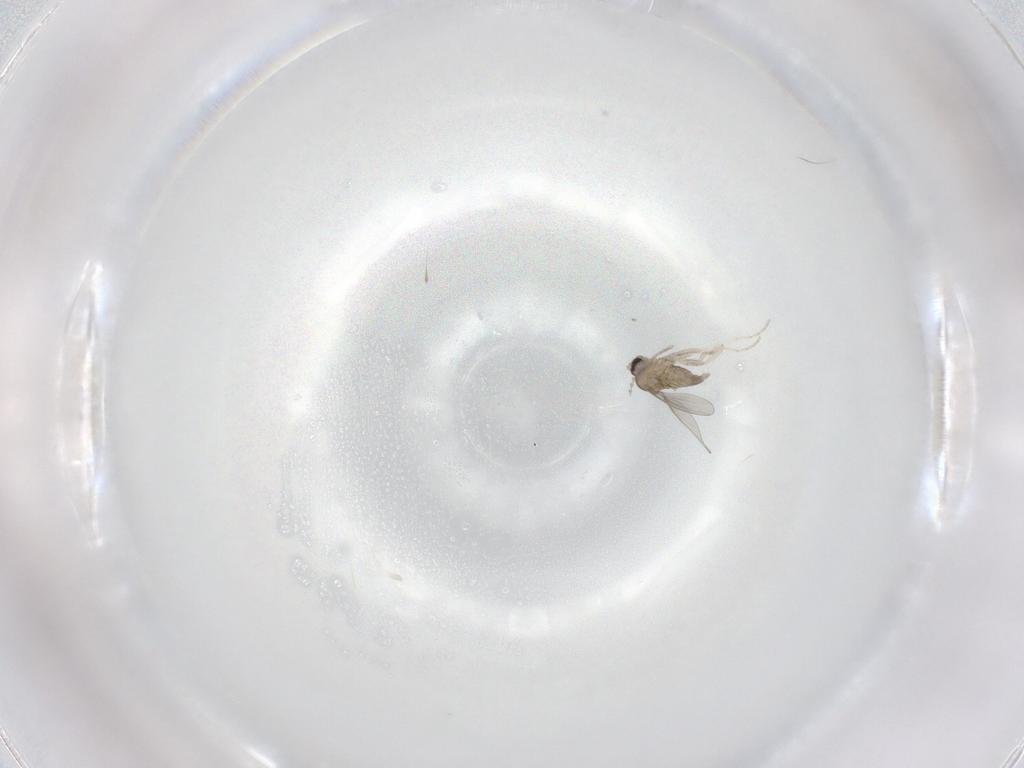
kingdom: Animalia
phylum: Arthropoda
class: Insecta
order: Diptera
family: Cecidomyiidae
